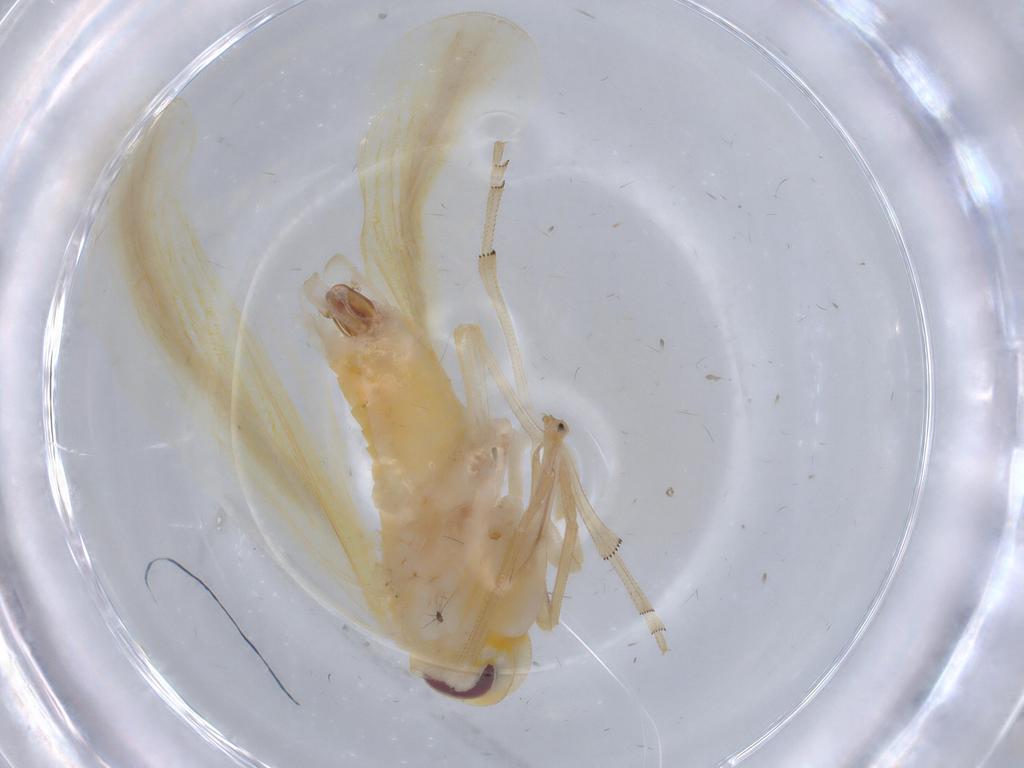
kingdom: Animalia
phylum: Arthropoda
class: Insecta
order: Hemiptera
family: Derbidae
